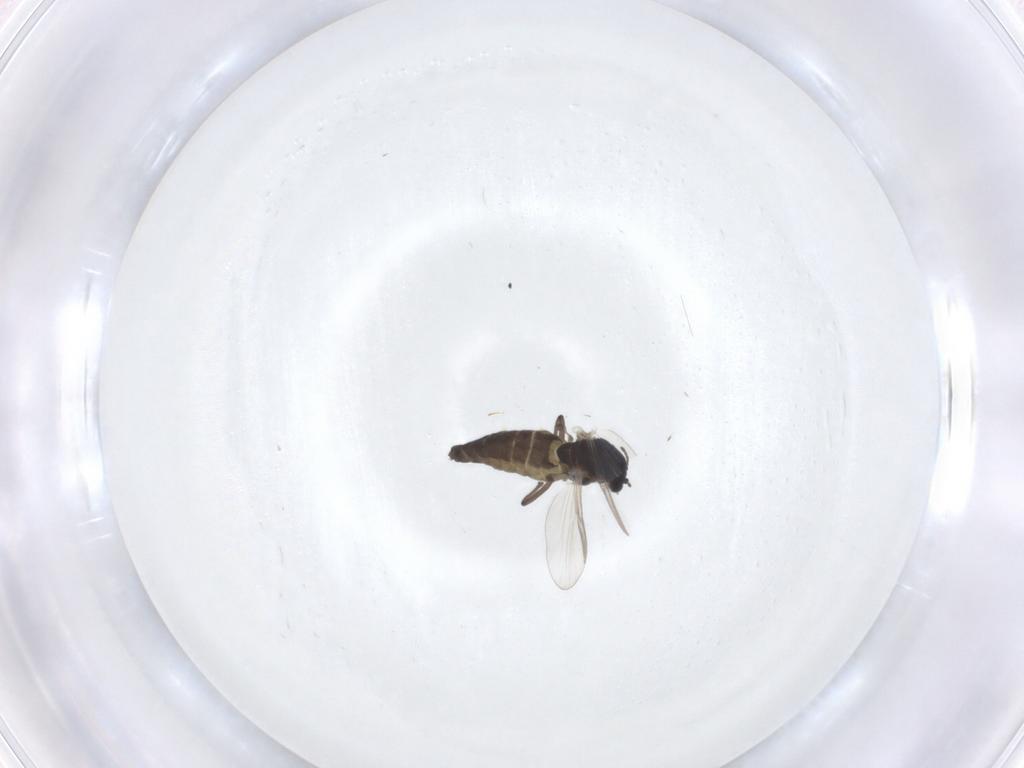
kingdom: Animalia
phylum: Arthropoda
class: Insecta
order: Diptera
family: Chironomidae
